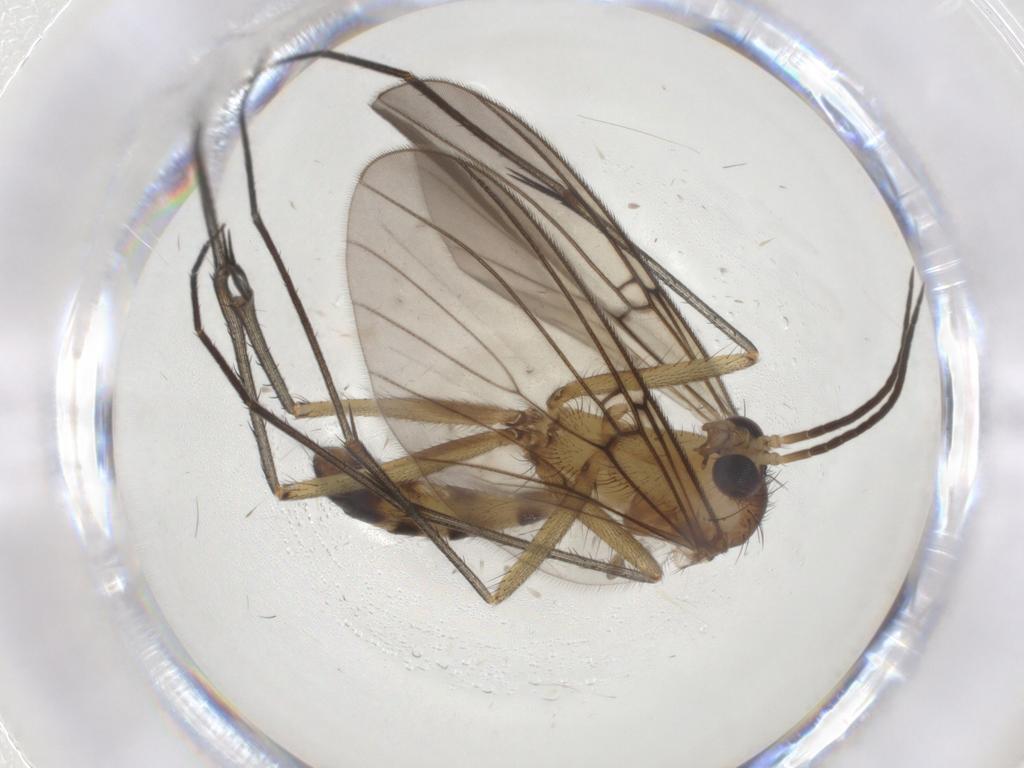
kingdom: Animalia
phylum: Arthropoda
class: Insecta
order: Diptera
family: Mycetophilidae
